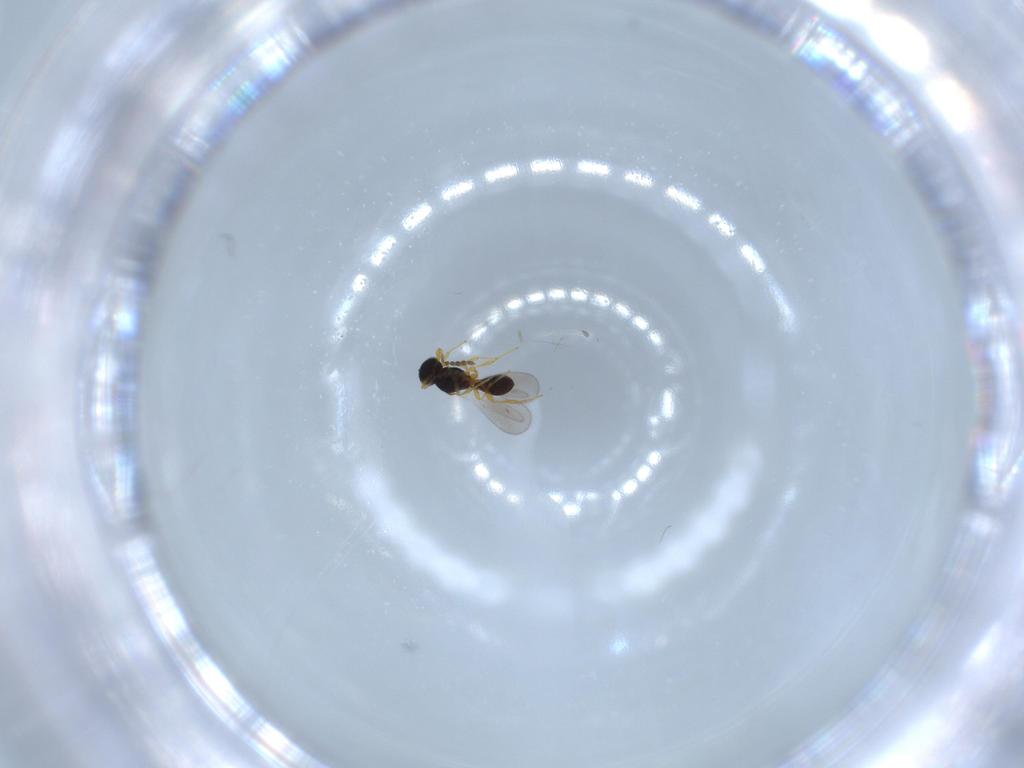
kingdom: Animalia
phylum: Arthropoda
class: Insecta
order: Hymenoptera
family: Platygastridae
